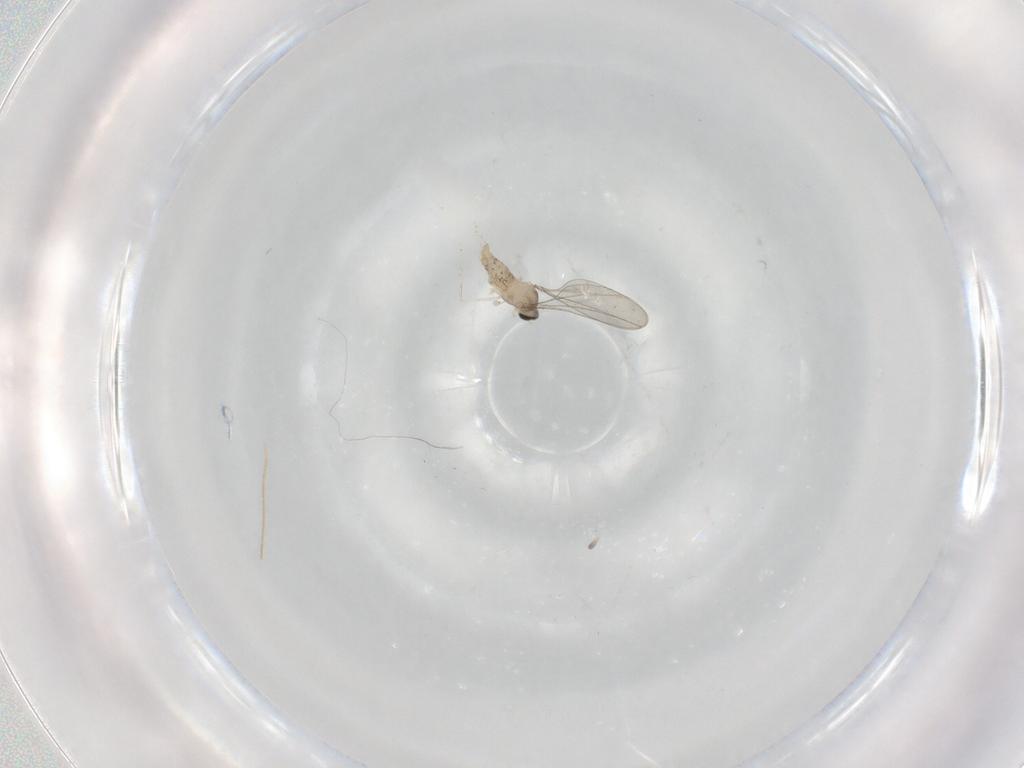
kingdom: Animalia
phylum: Arthropoda
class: Insecta
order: Diptera
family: Cecidomyiidae
